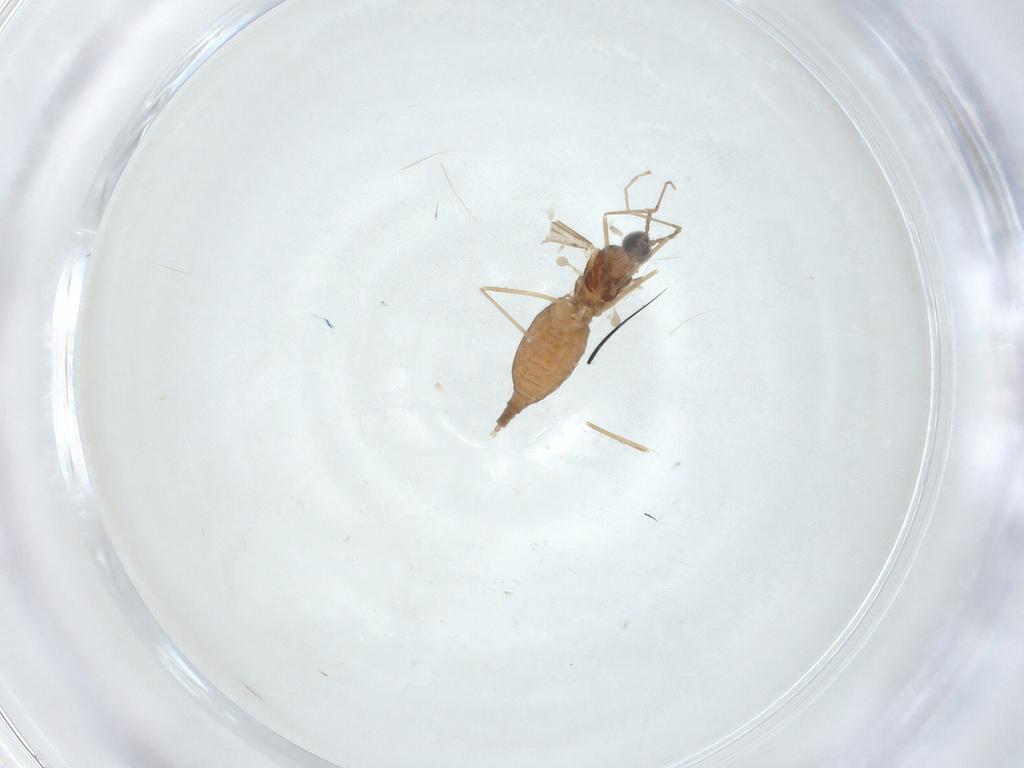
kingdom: Animalia
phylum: Arthropoda
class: Insecta
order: Diptera
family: Cecidomyiidae
